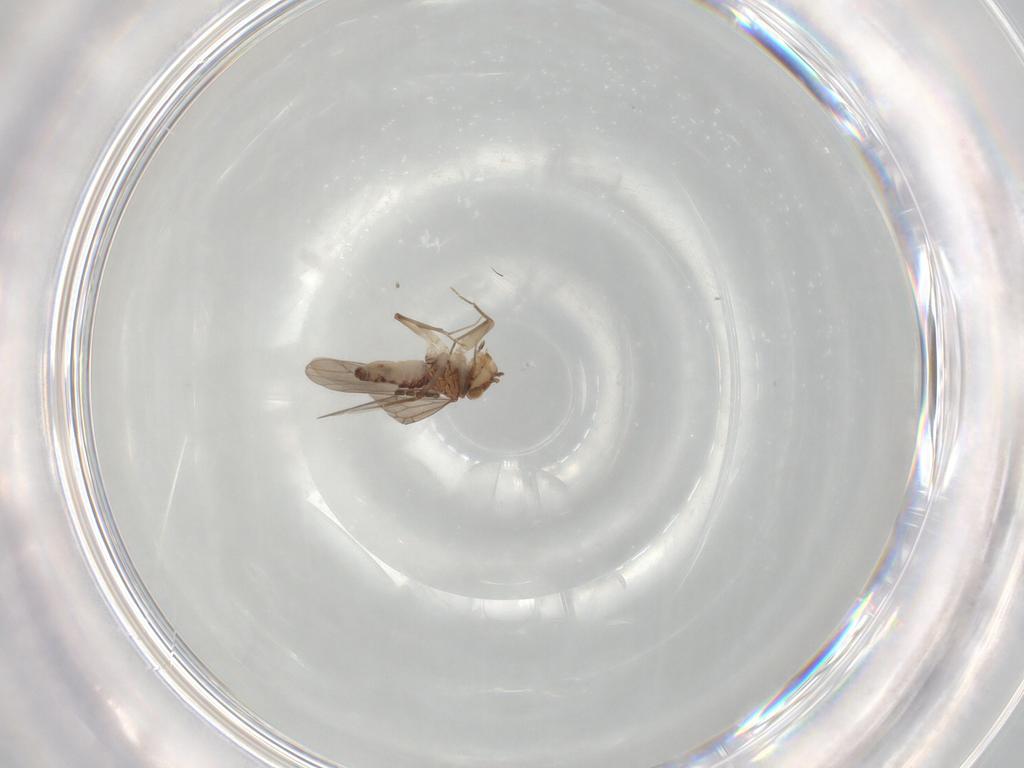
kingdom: Animalia
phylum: Arthropoda
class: Insecta
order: Psocodea
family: Lepidopsocidae
